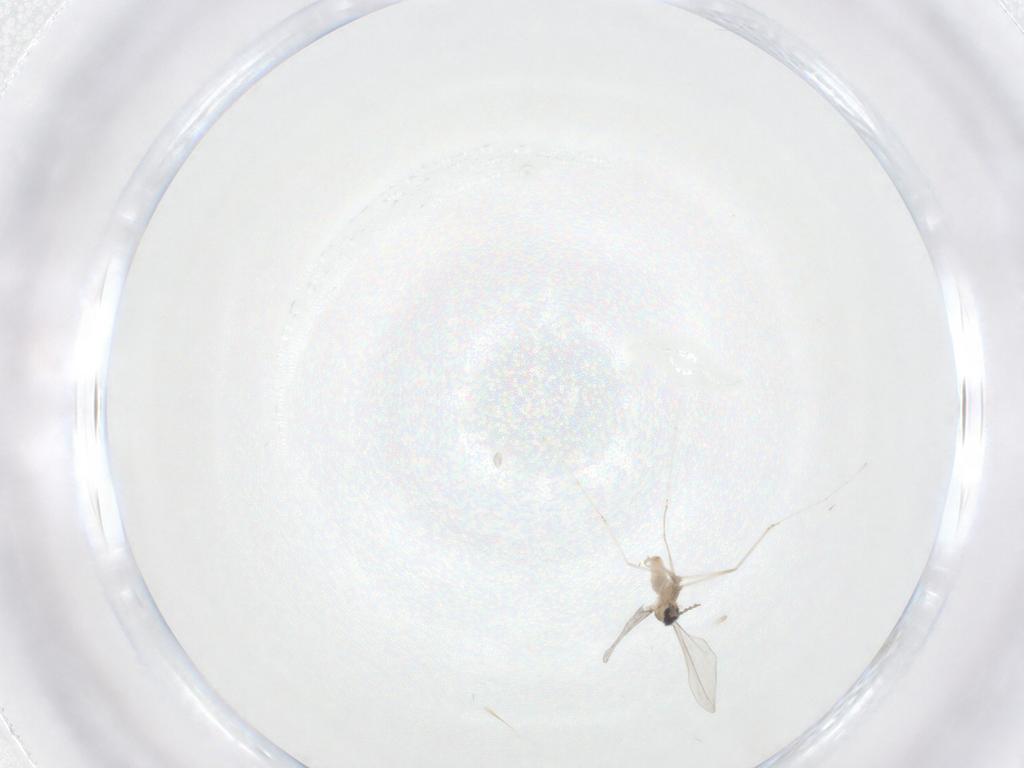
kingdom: Animalia
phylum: Arthropoda
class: Insecta
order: Diptera
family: Cecidomyiidae
